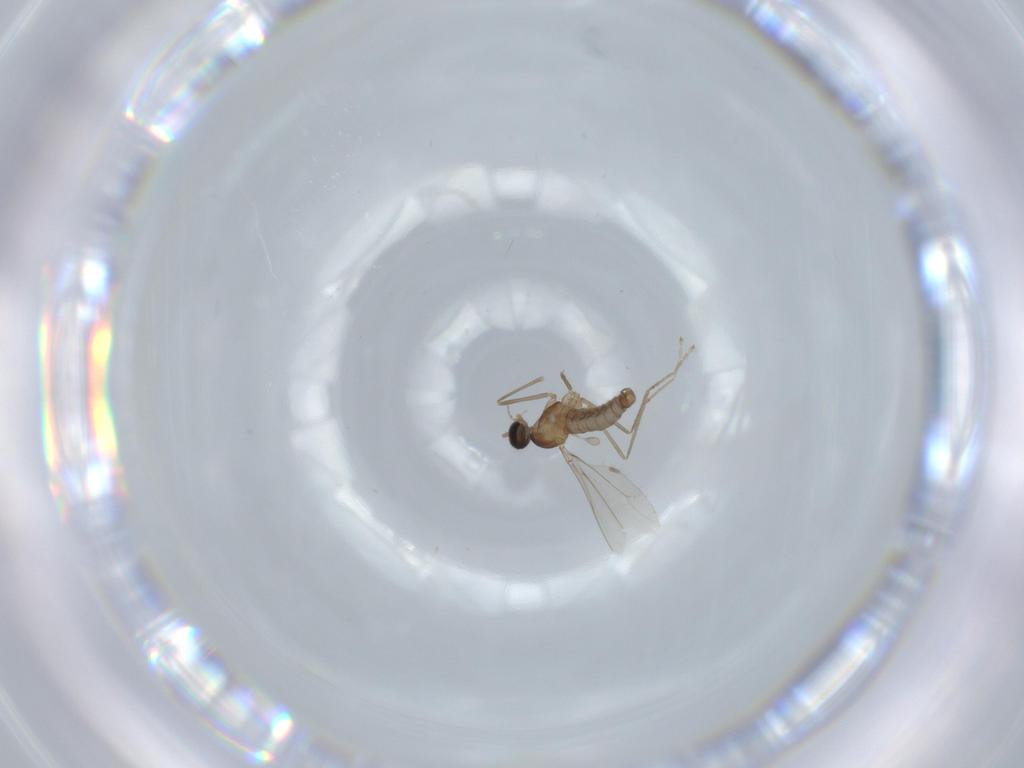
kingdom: Animalia
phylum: Arthropoda
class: Insecta
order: Diptera
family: Cecidomyiidae
